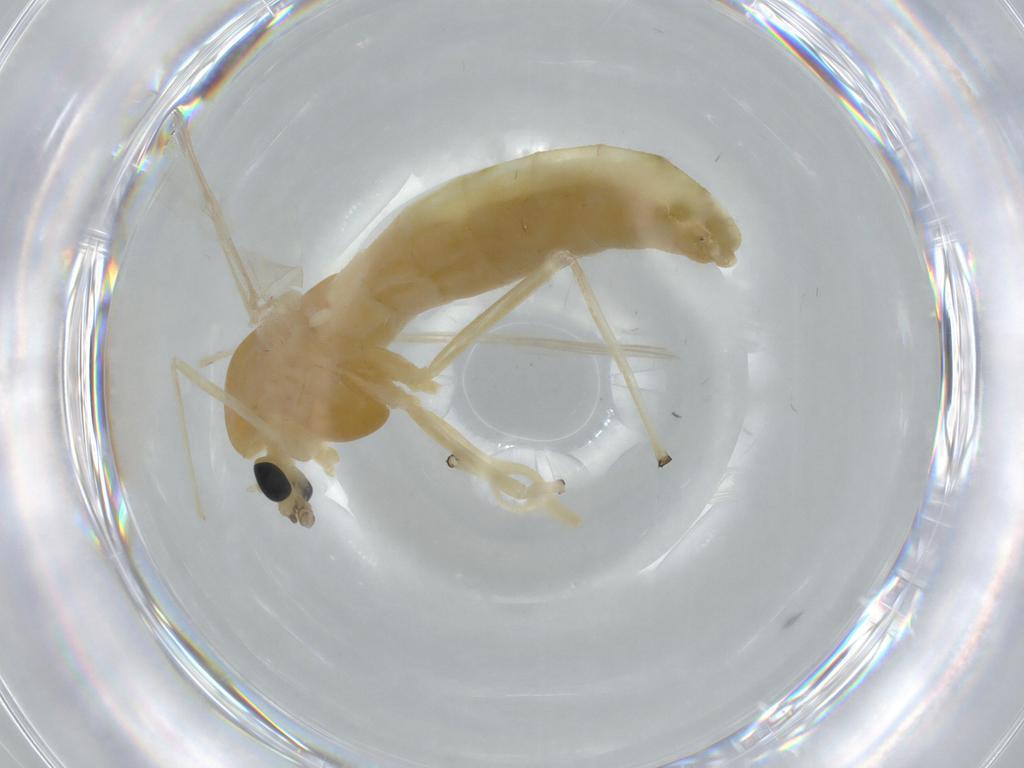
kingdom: Animalia
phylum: Arthropoda
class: Insecta
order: Diptera
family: Chironomidae
